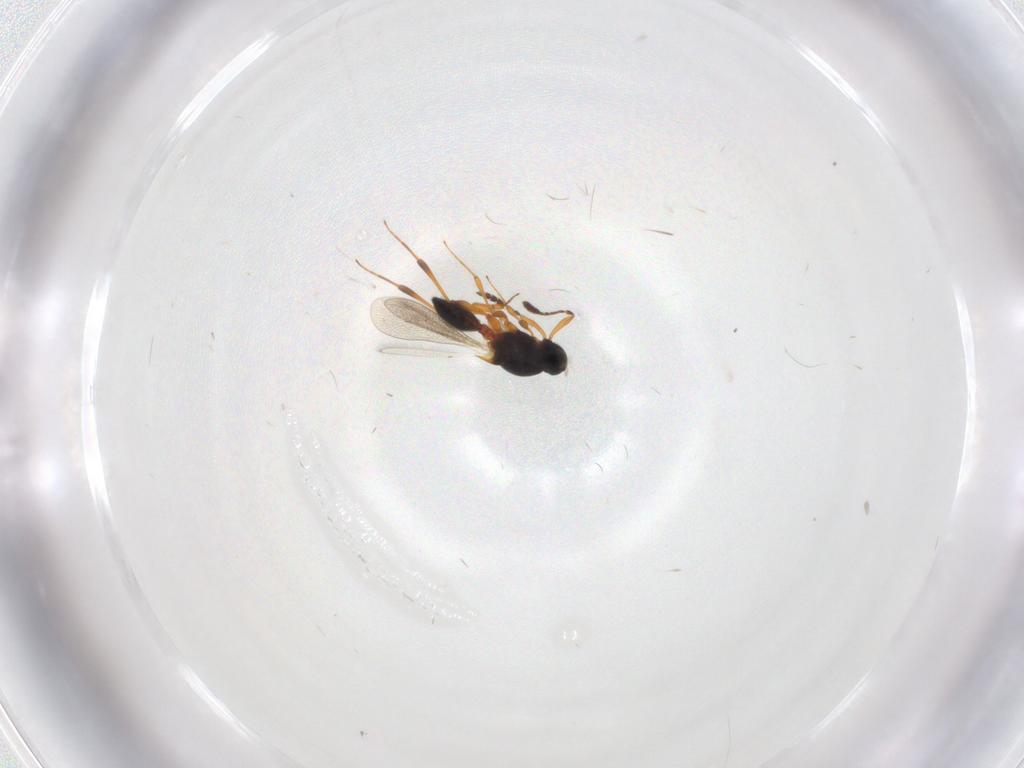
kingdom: Animalia
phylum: Arthropoda
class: Insecta
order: Hymenoptera
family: Platygastridae
